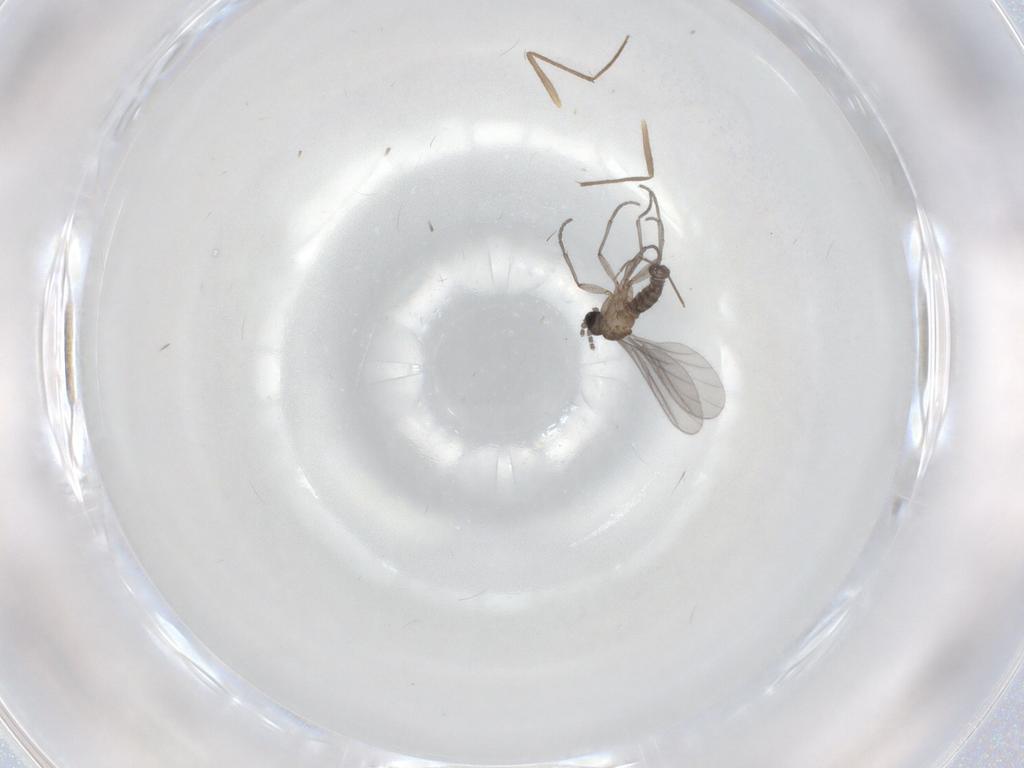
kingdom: Animalia
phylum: Arthropoda
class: Insecta
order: Diptera
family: Sciaridae
